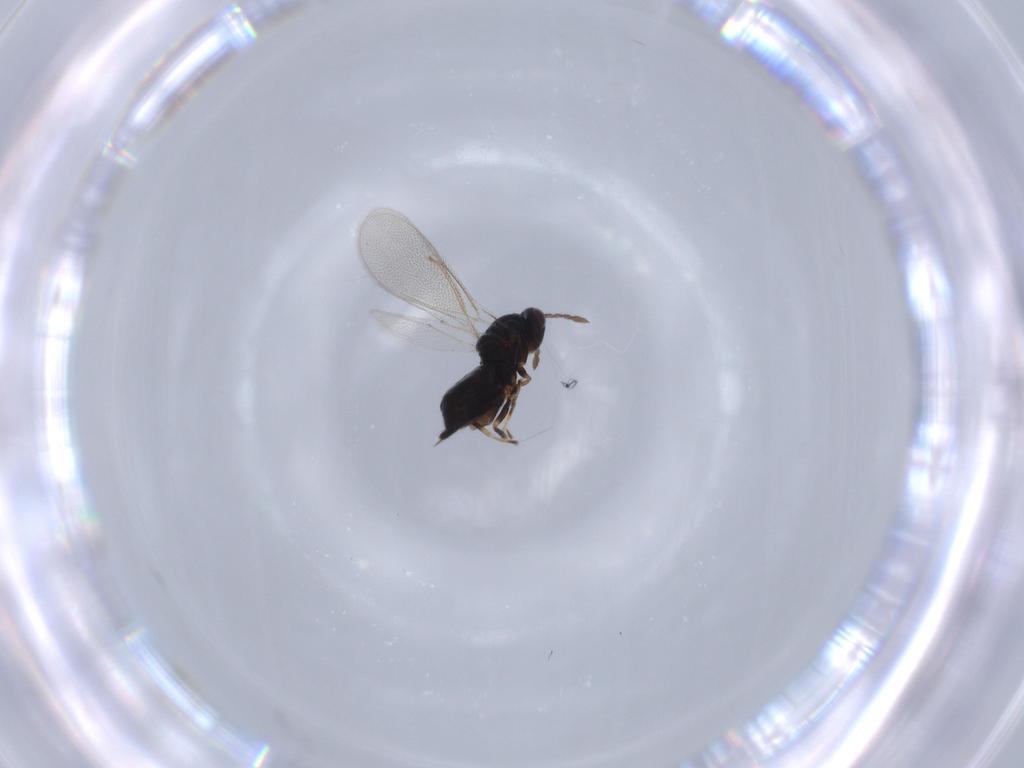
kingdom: Animalia
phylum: Arthropoda
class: Insecta
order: Hymenoptera
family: Eulophidae
